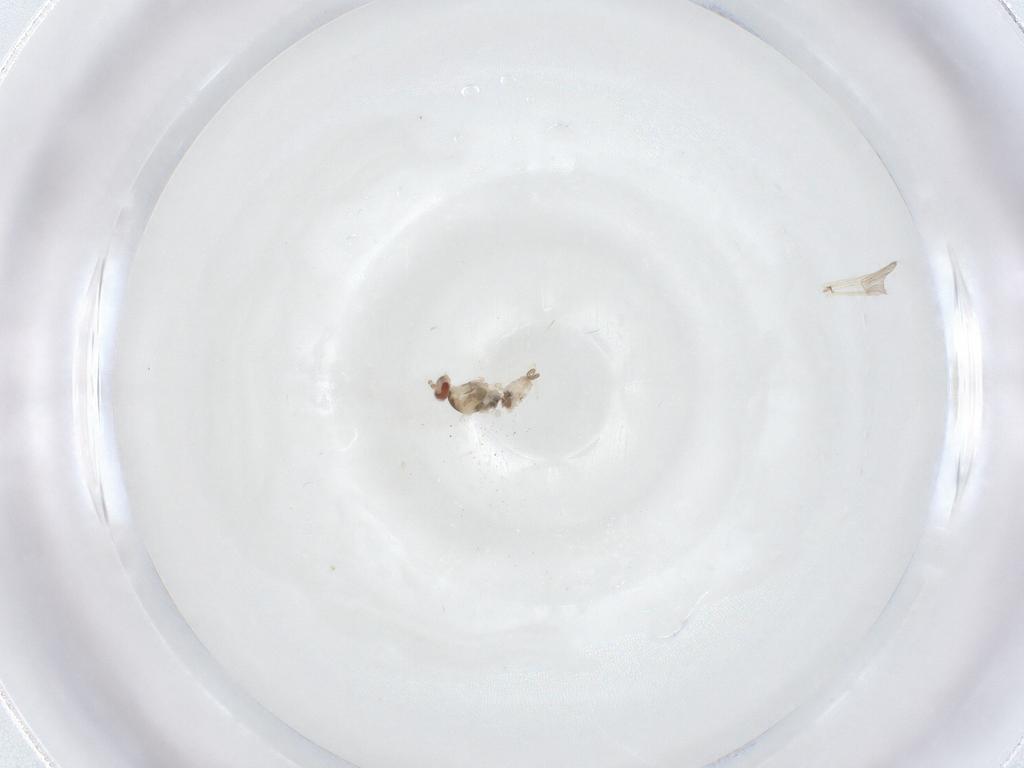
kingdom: Animalia
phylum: Arthropoda
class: Insecta
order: Diptera
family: Cecidomyiidae
